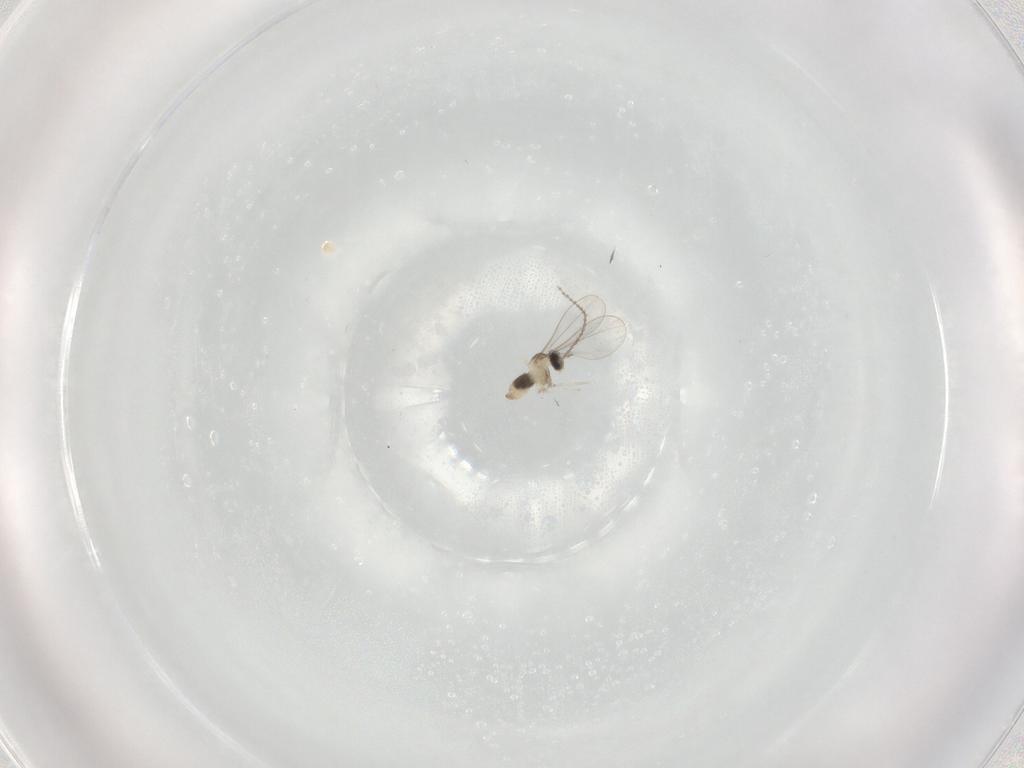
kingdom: Animalia
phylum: Arthropoda
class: Insecta
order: Diptera
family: Cecidomyiidae
